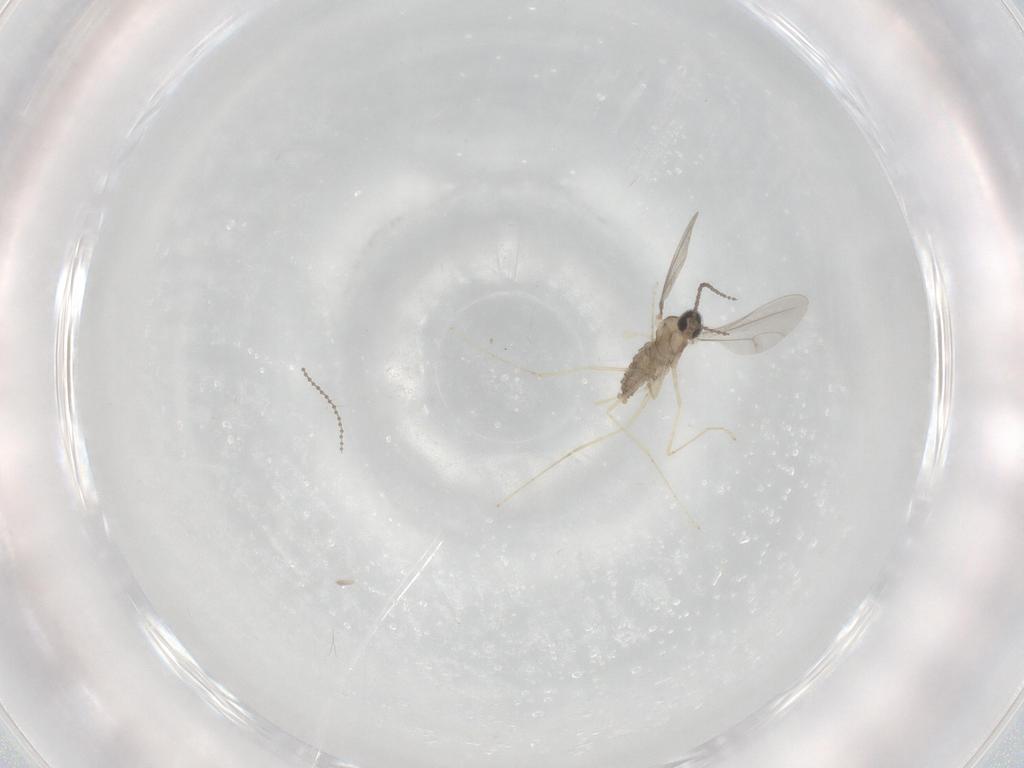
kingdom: Animalia
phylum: Arthropoda
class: Insecta
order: Diptera
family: Cecidomyiidae
